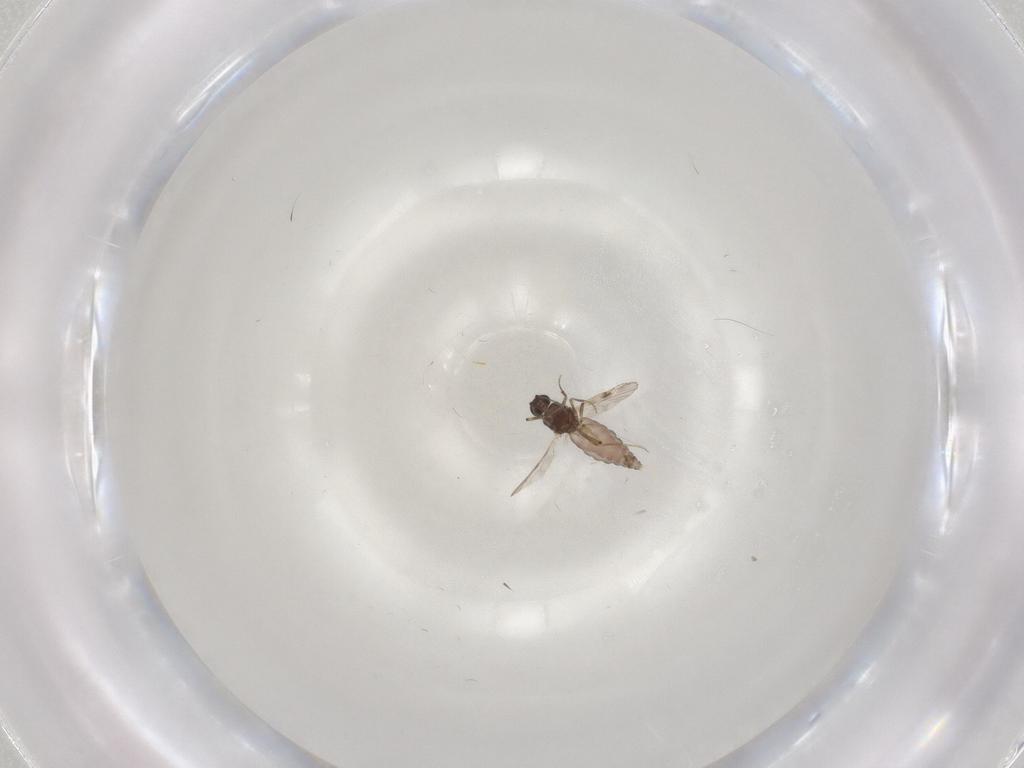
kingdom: Animalia
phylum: Arthropoda
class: Insecta
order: Diptera
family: Limoniidae
